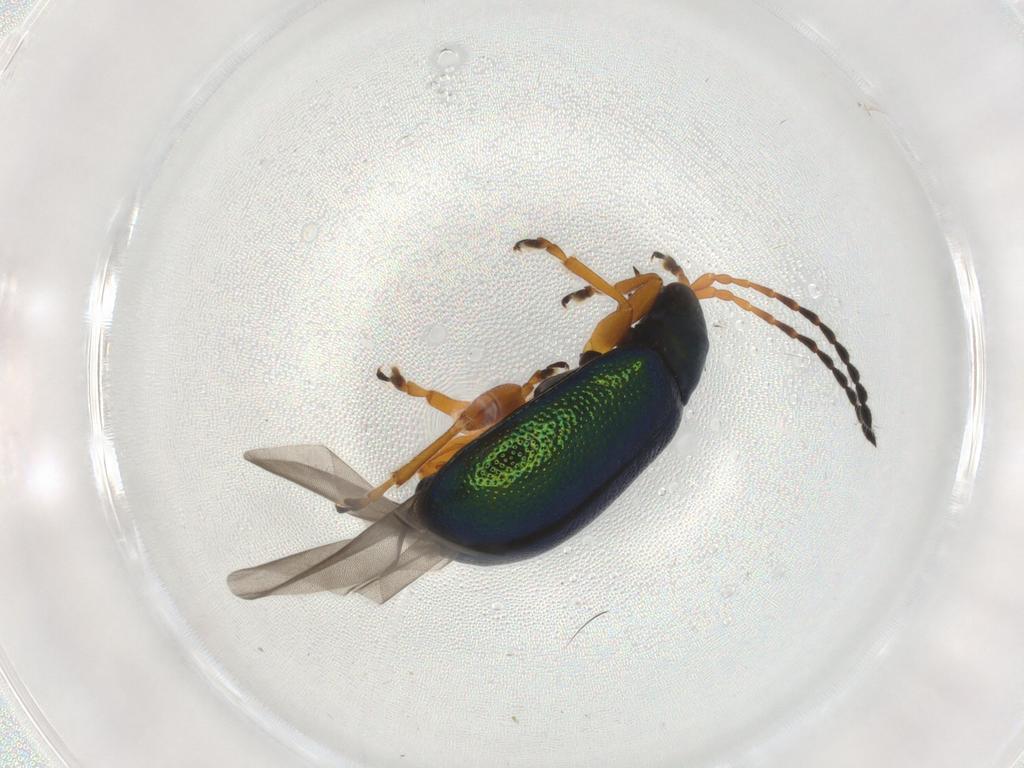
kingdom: Animalia
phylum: Arthropoda
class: Insecta
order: Coleoptera
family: Chrysomelidae
